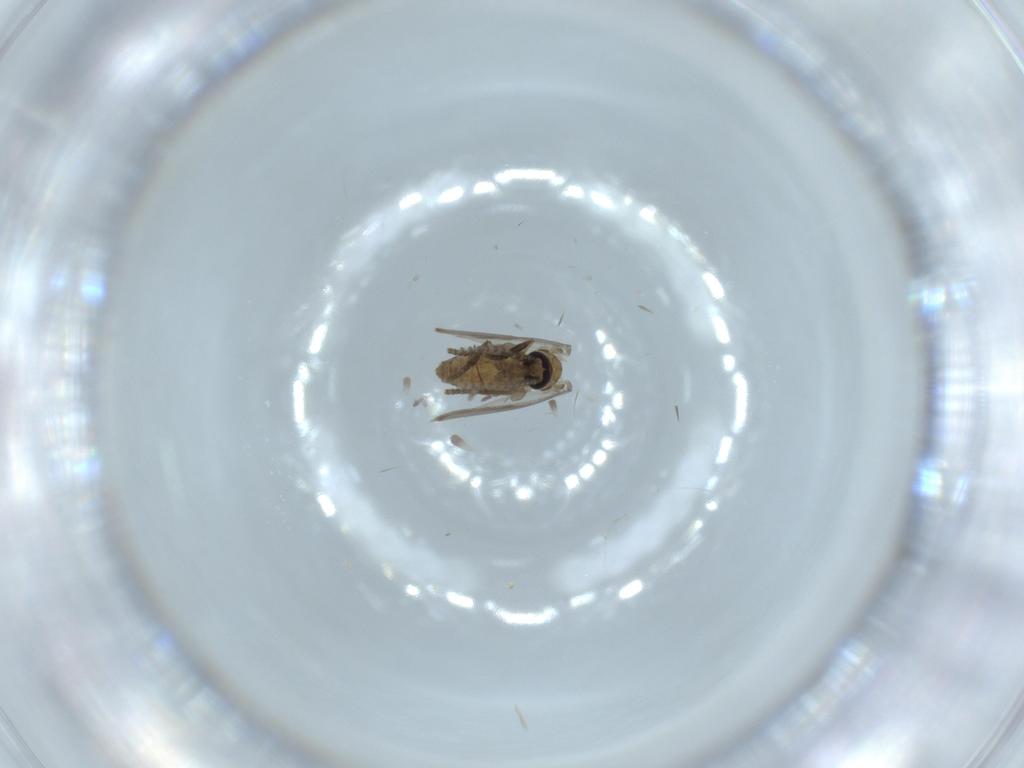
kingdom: Animalia
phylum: Arthropoda
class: Insecta
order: Diptera
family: Psychodidae
